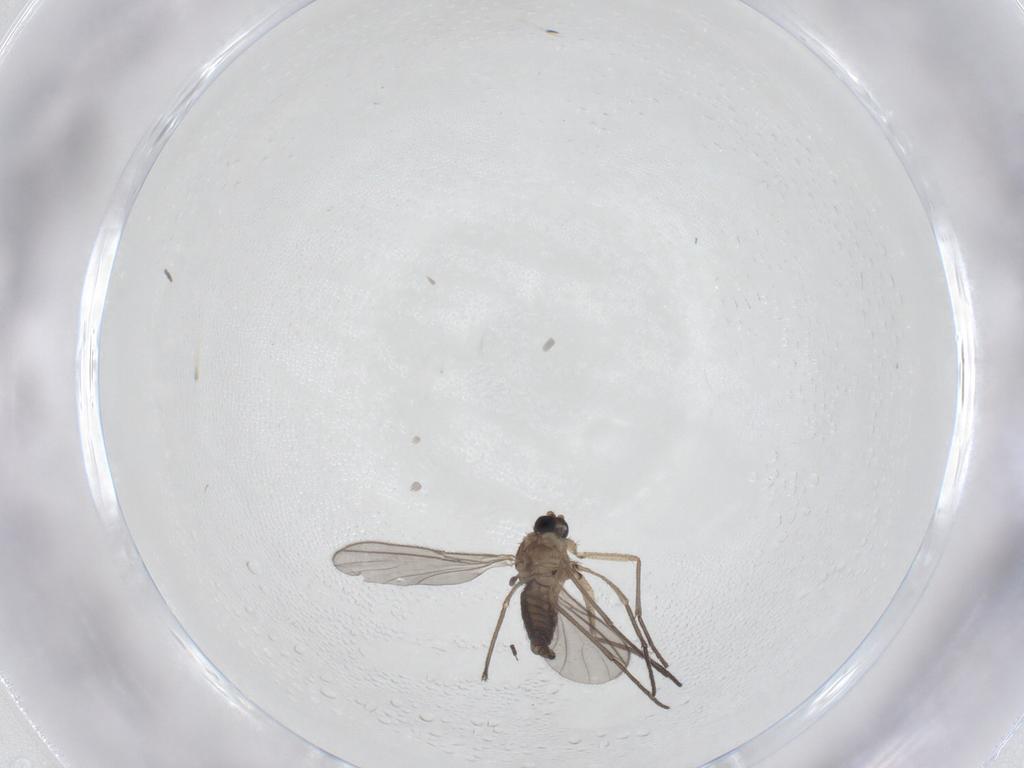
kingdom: Animalia
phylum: Arthropoda
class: Insecta
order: Diptera
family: Sciaridae
